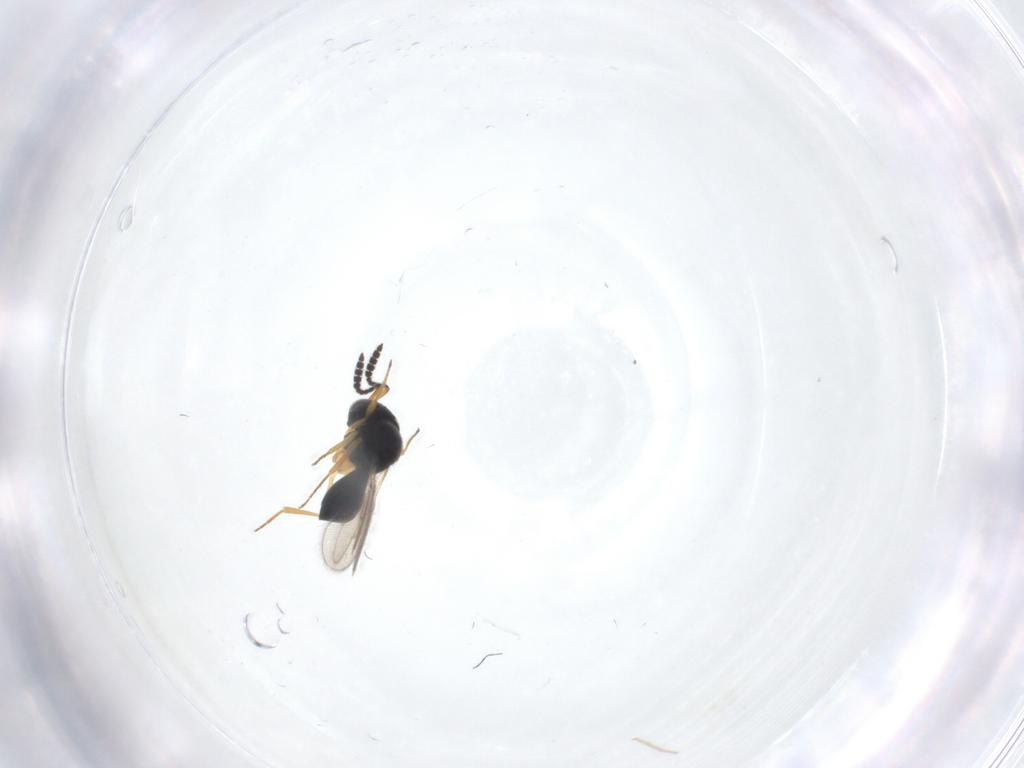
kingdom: Animalia
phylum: Arthropoda
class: Insecta
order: Hymenoptera
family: Scelionidae
